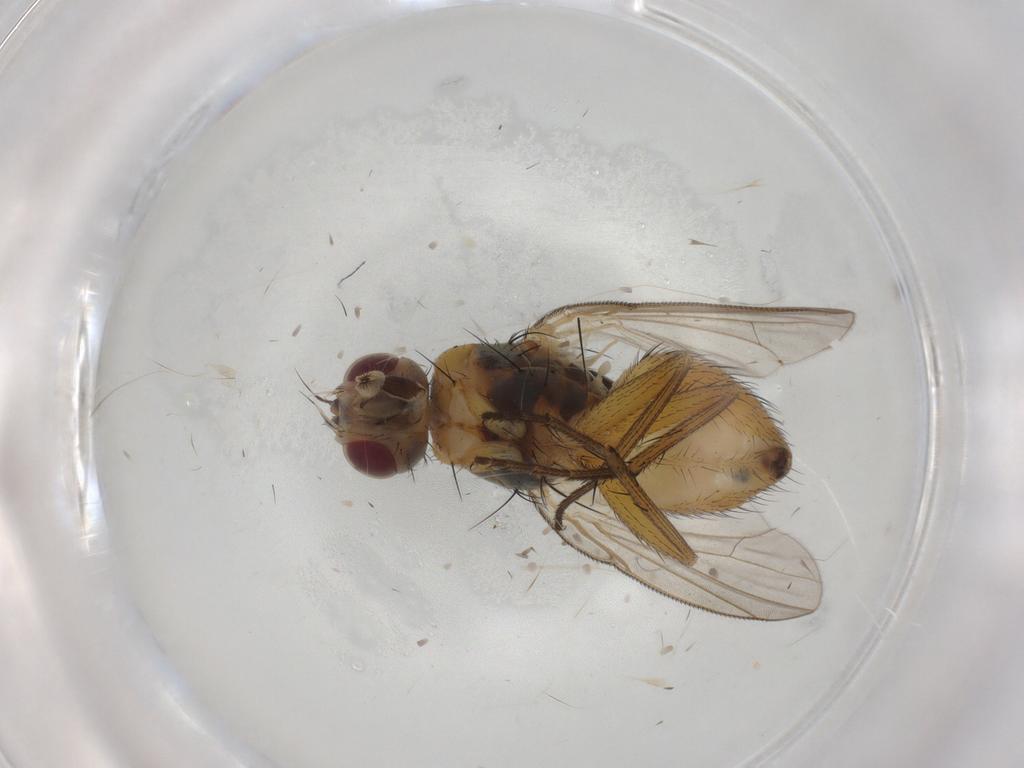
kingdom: Animalia
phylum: Arthropoda
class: Insecta
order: Diptera
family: Muscidae
